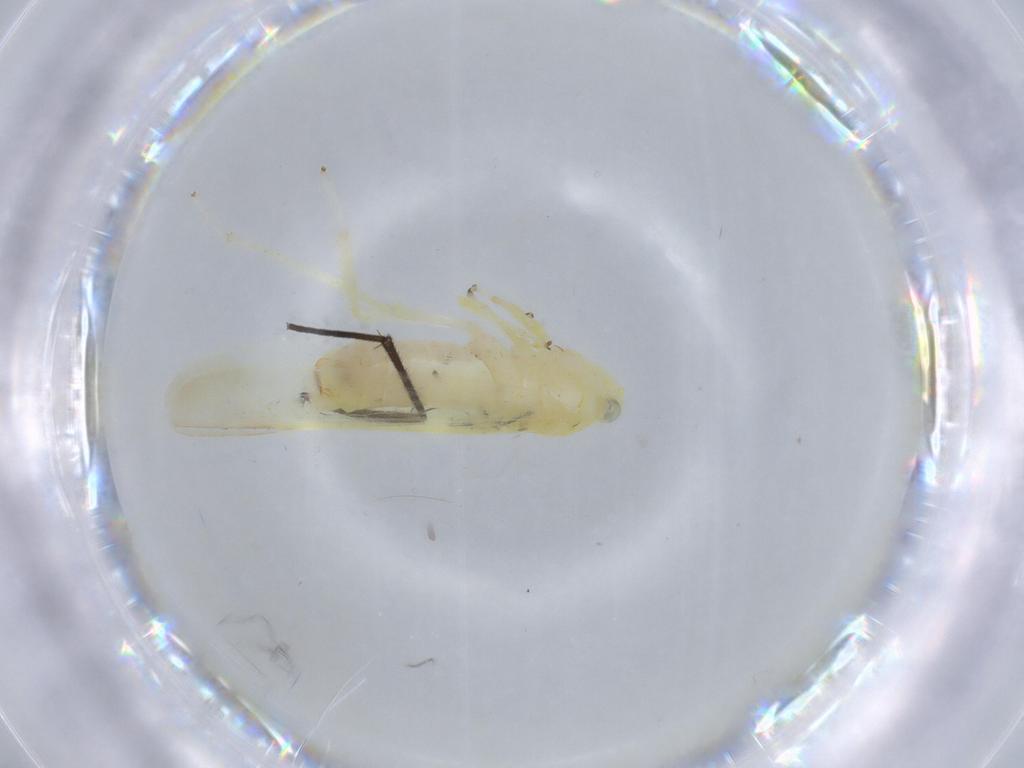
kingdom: Animalia
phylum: Arthropoda
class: Insecta
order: Hemiptera
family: Cicadellidae
